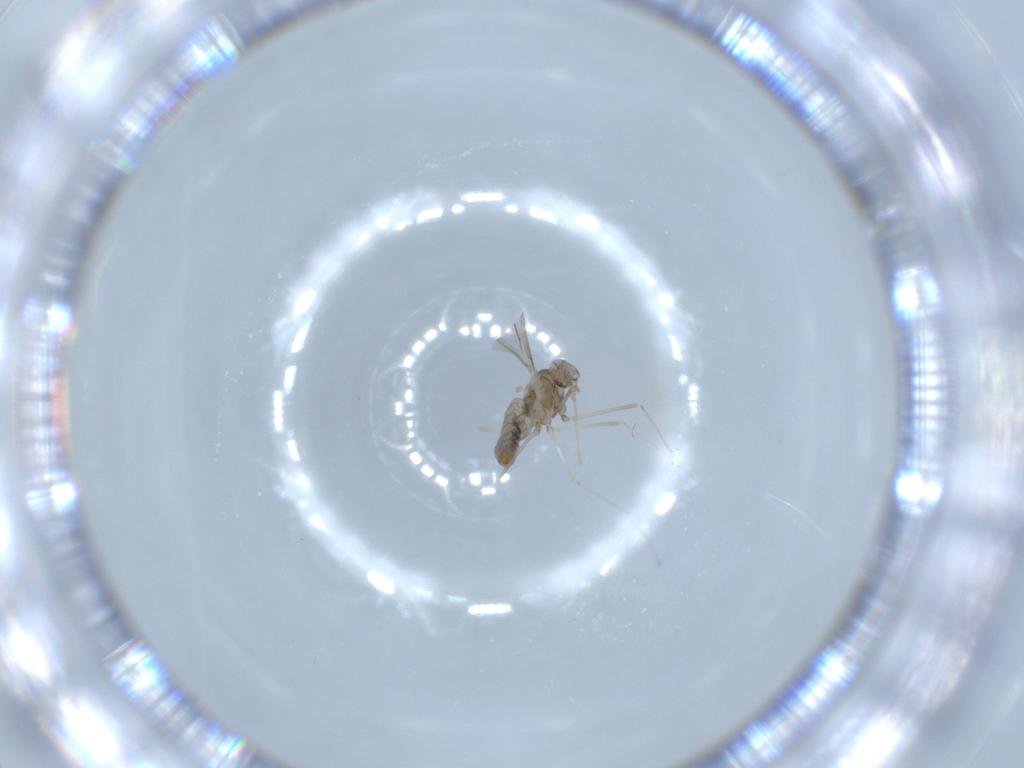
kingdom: Animalia
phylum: Arthropoda
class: Insecta
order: Diptera
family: Cecidomyiidae
